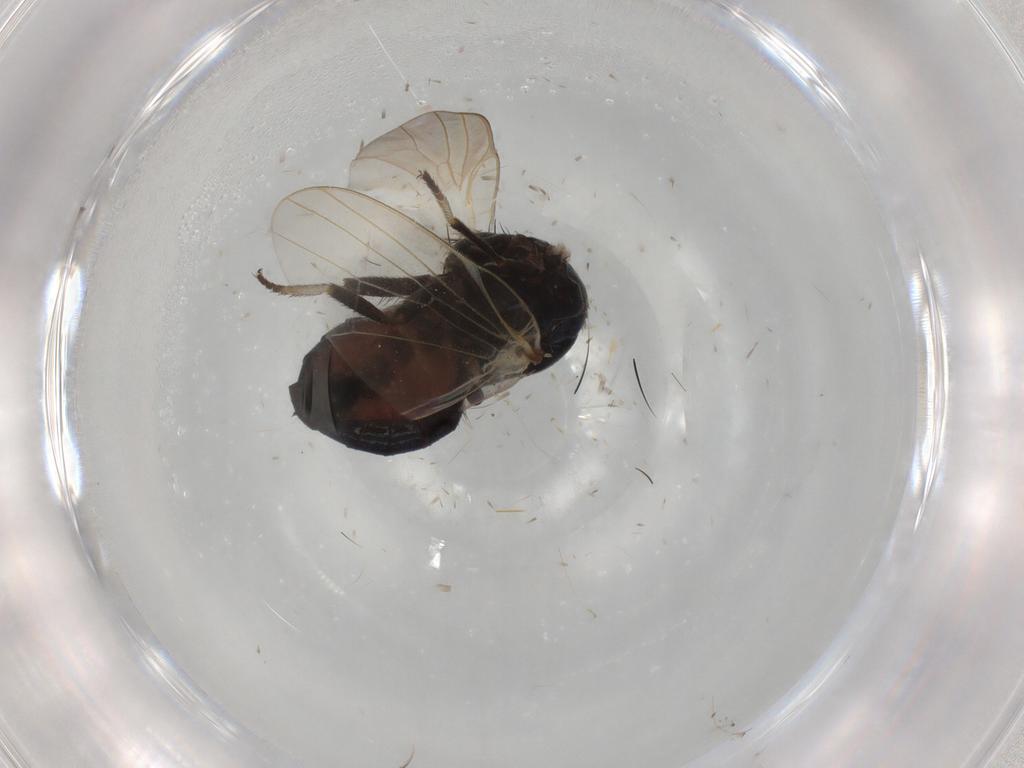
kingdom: Animalia
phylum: Arthropoda
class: Insecta
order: Diptera
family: Lonchaeidae
